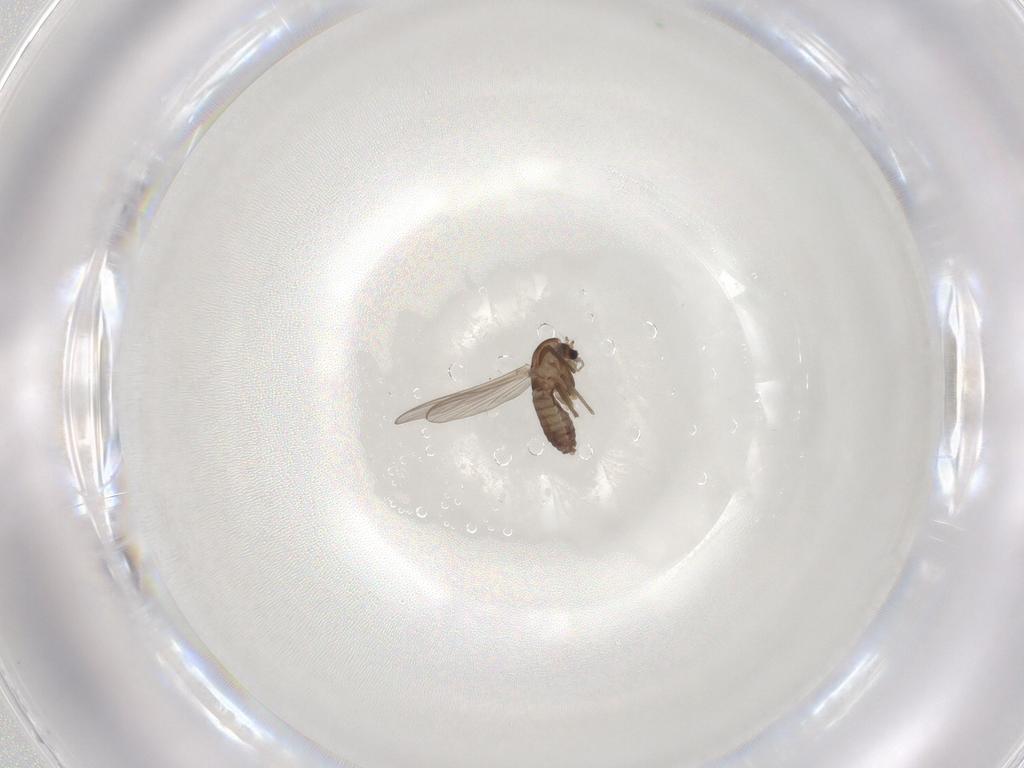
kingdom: Animalia
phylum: Arthropoda
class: Insecta
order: Diptera
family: Chironomidae
